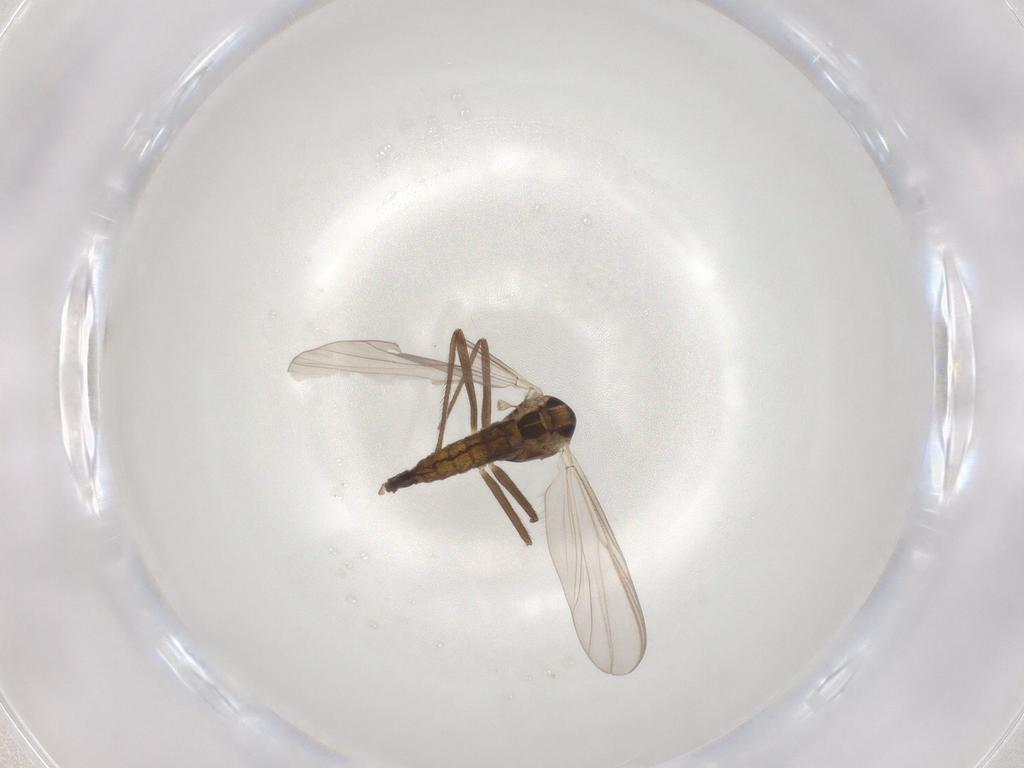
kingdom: Animalia
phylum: Arthropoda
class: Insecta
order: Diptera
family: Chironomidae
